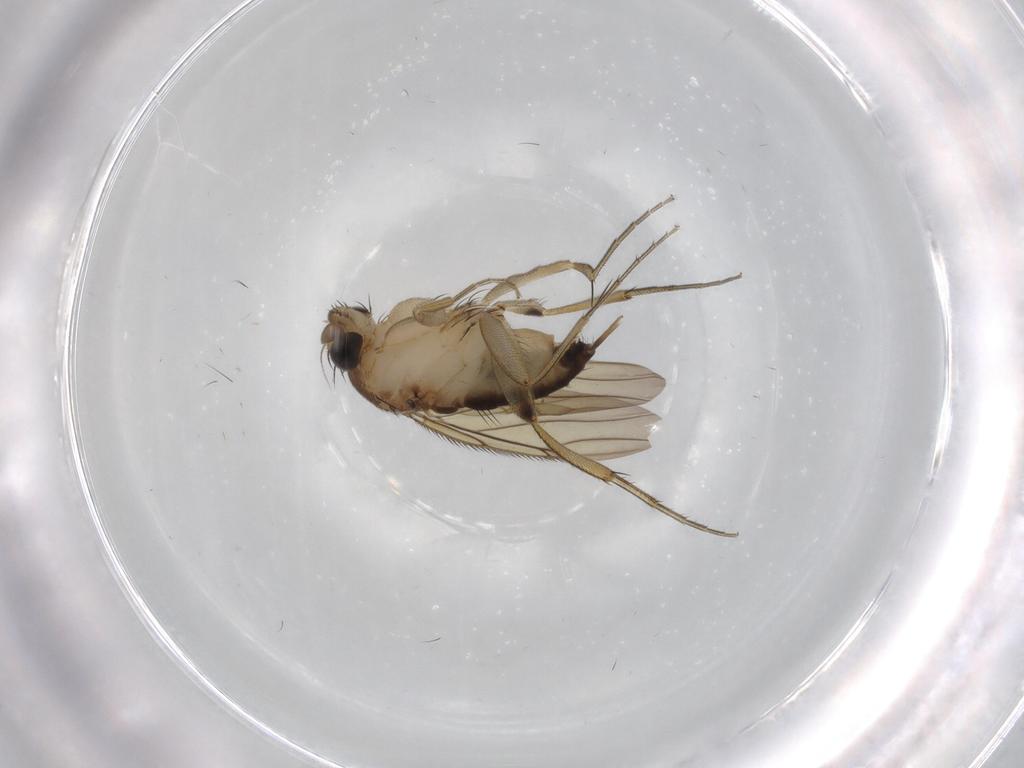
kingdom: Animalia
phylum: Arthropoda
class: Insecta
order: Diptera
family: Phoridae
